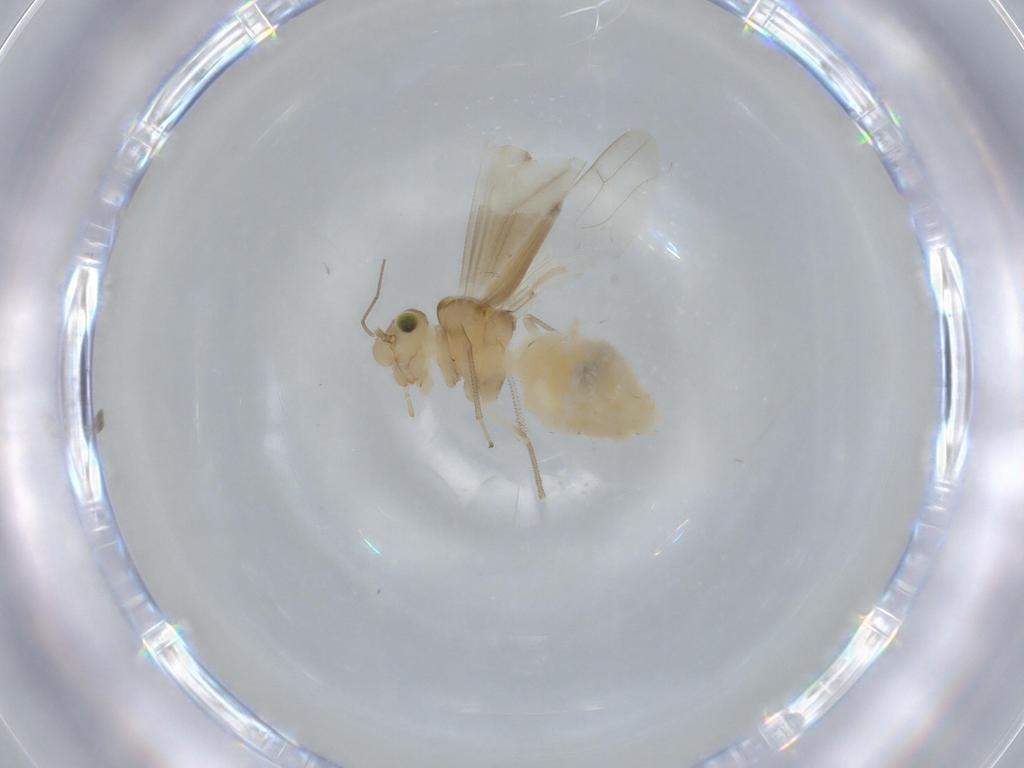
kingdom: Animalia
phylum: Arthropoda
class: Insecta
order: Psocodea
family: Caeciliusidae
